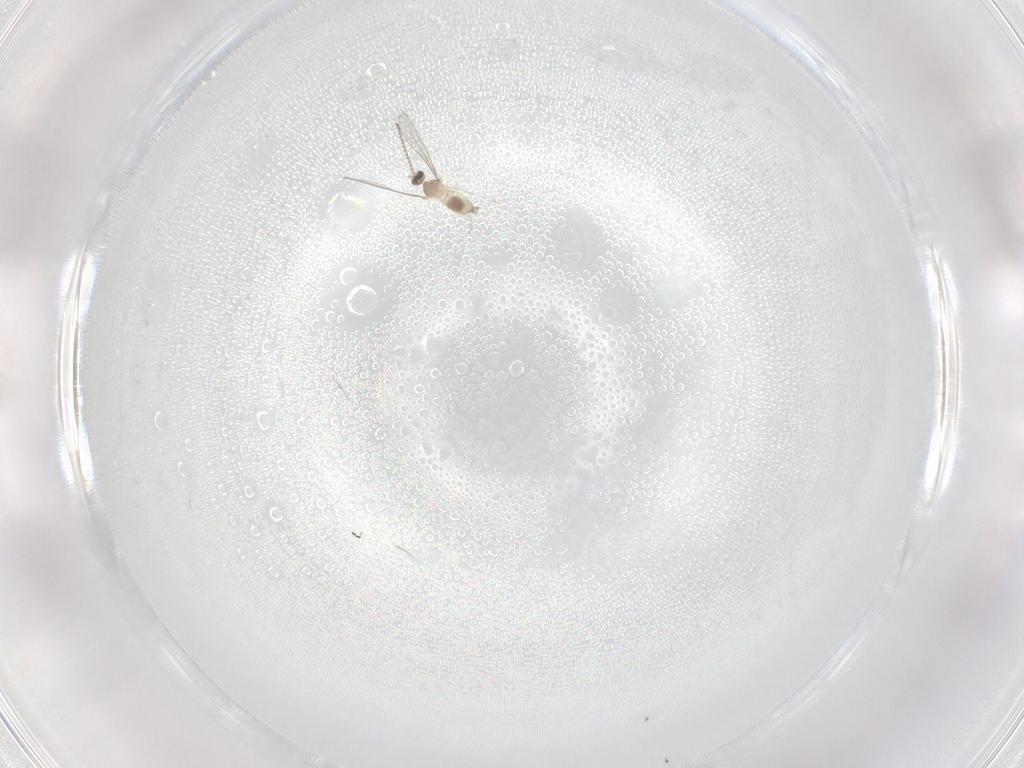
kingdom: Animalia
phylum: Arthropoda
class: Insecta
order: Diptera
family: Cecidomyiidae
